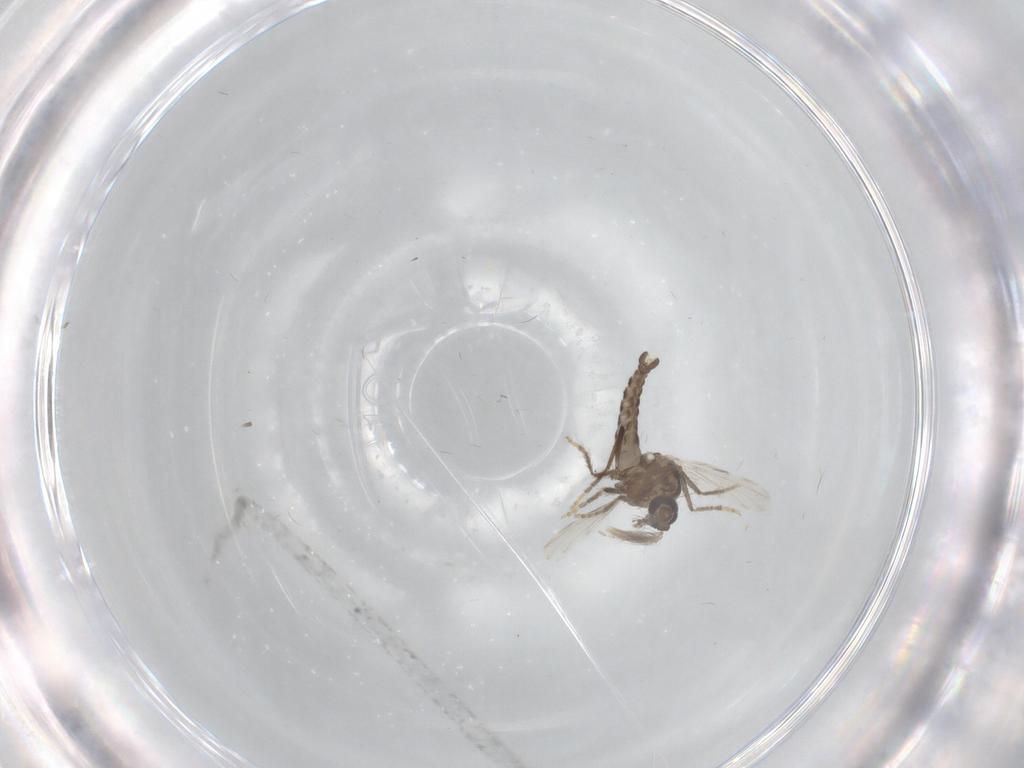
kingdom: Animalia
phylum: Arthropoda
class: Insecta
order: Diptera
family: Ceratopogonidae
